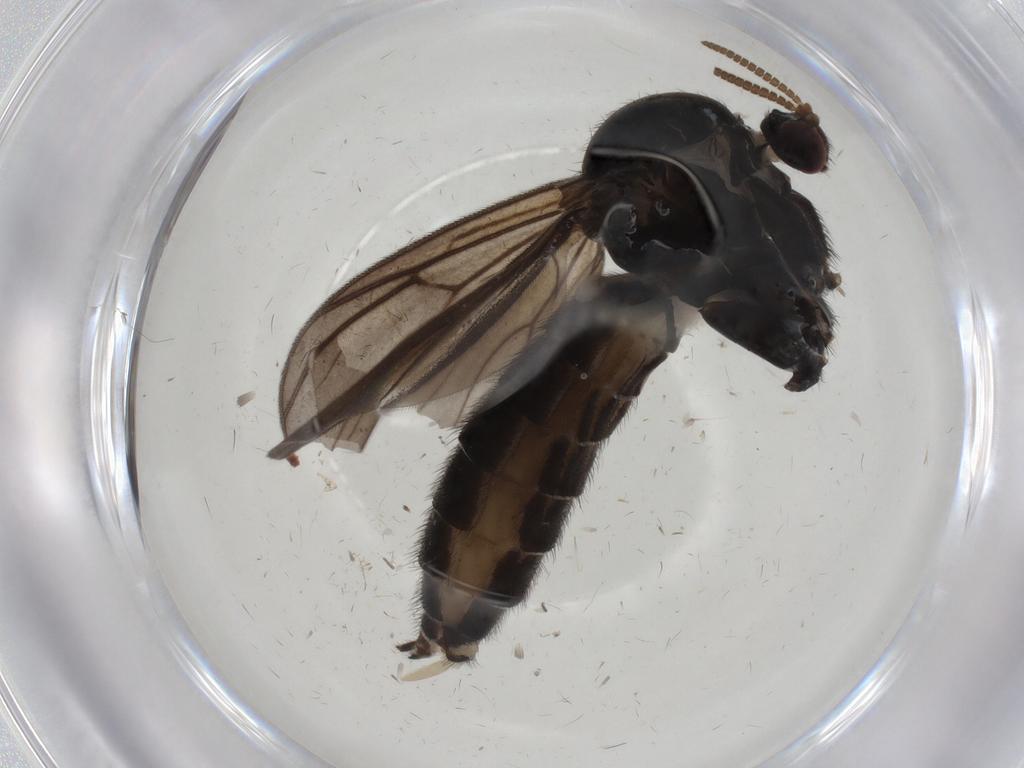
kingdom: Animalia
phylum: Arthropoda
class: Insecta
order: Diptera
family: Mycetophilidae
